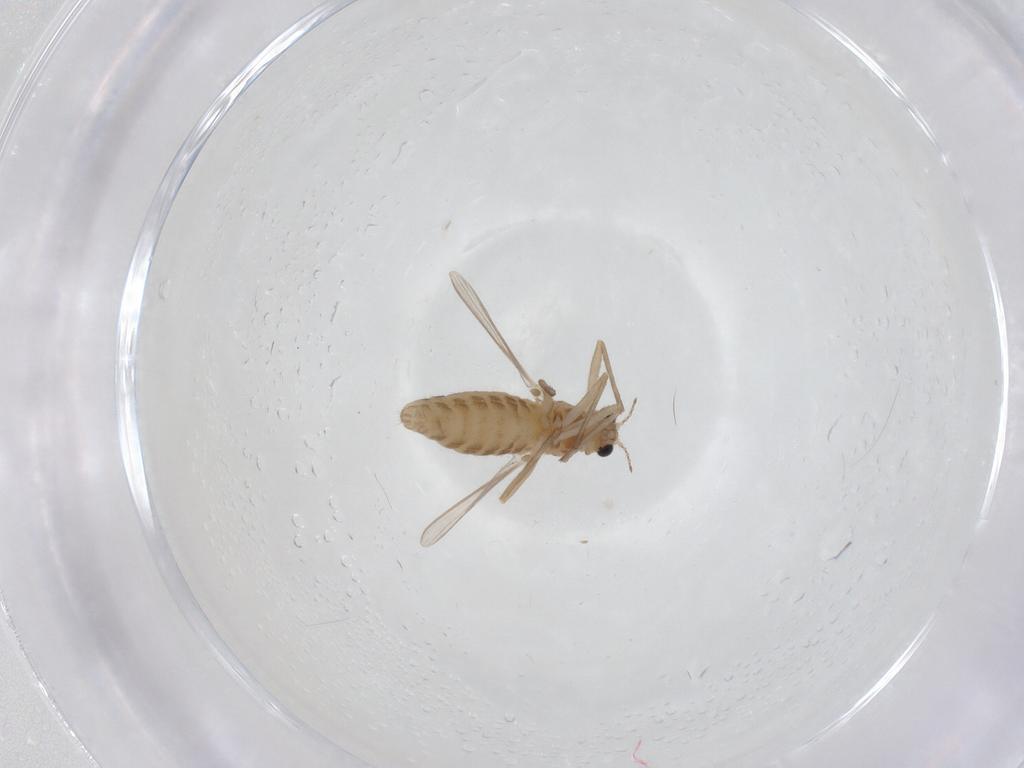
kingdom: Animalia
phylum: Arthropoda
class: Insecta
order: Diptera
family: Chironomidae
